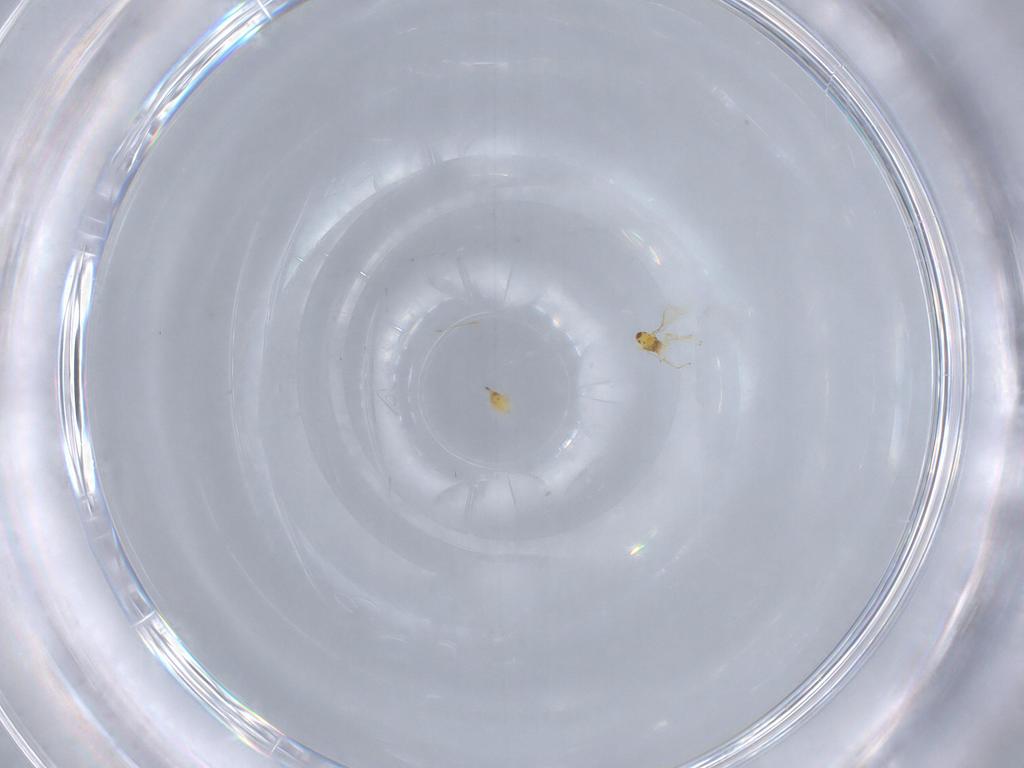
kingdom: Animalia
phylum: Arthropoda
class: Insecta
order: Hymenoptera
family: Mymaridae
